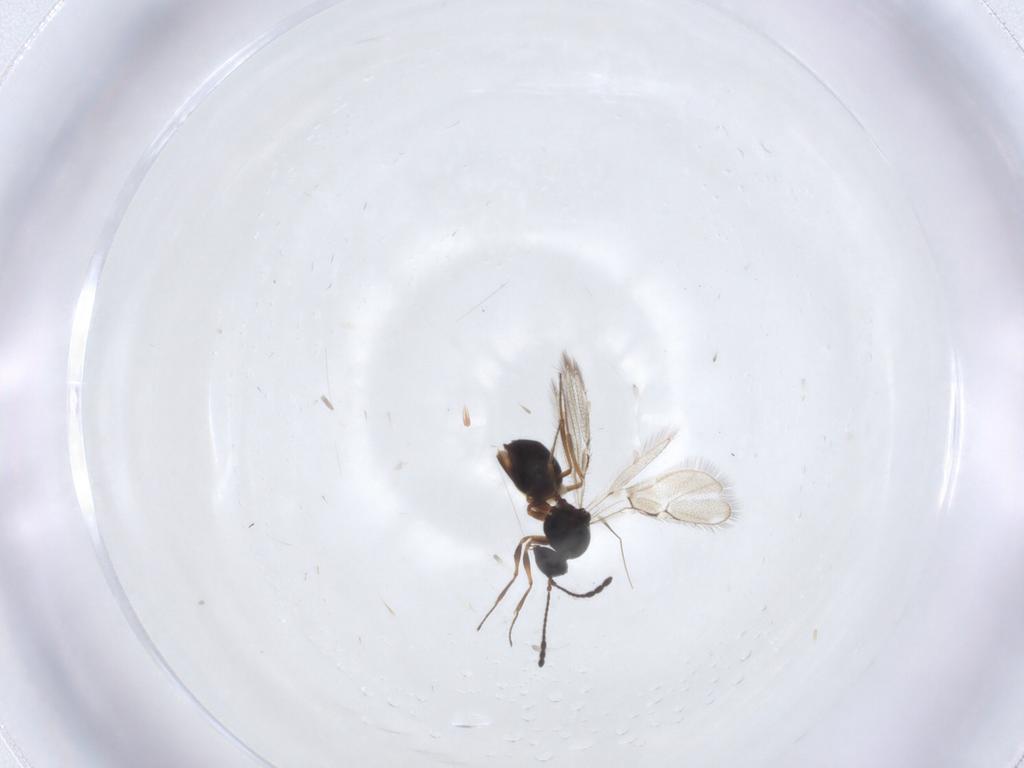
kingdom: Animalia
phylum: Arthropoda
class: Insecta
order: Hymenoptera
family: Figitidae
